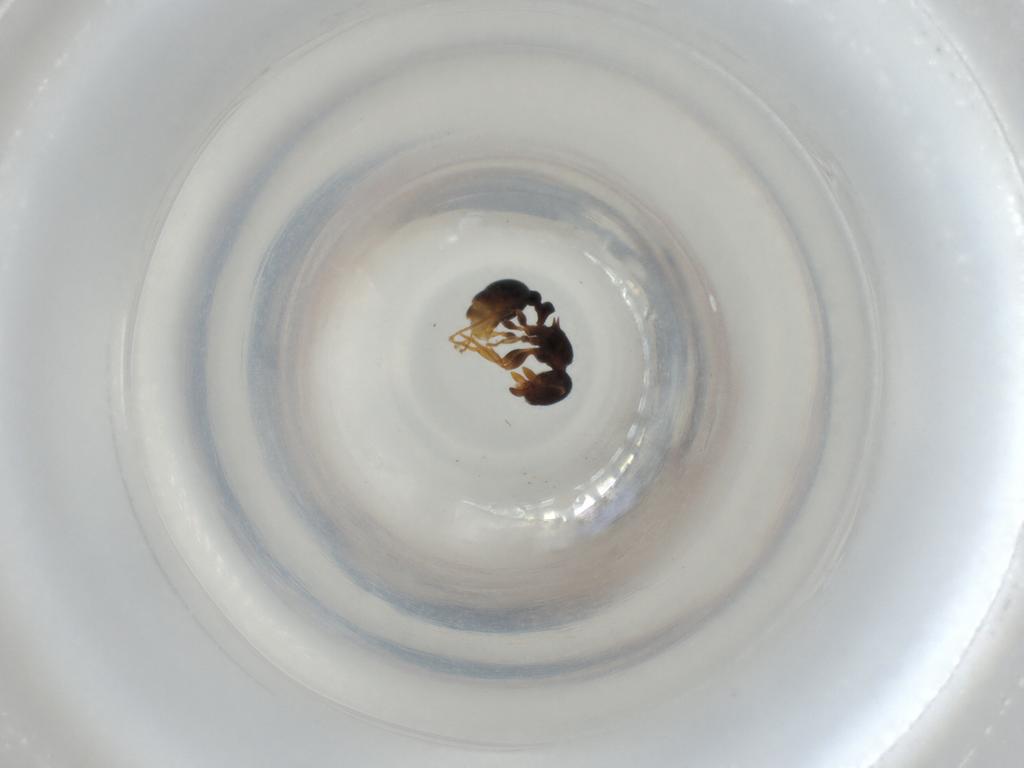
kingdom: Animalia
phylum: Arthropoda
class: Insecta
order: Hymenoptera
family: Formicidae
